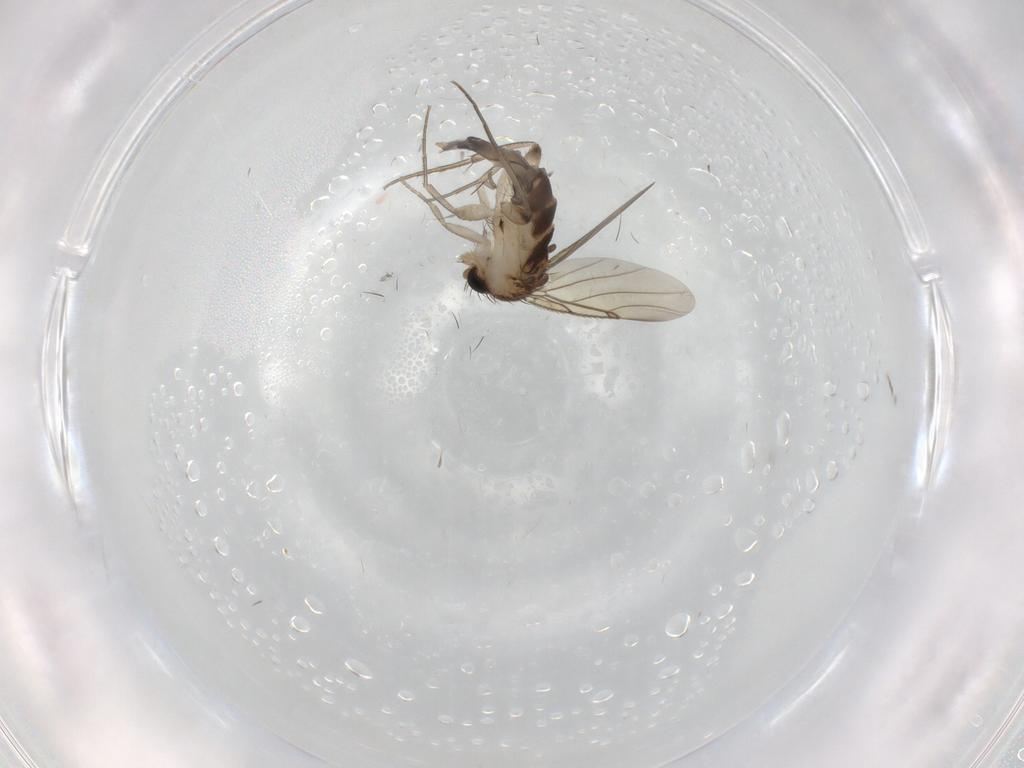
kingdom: Animalia
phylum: Arthropoda
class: Insecta
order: Diptera
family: Phoridae
